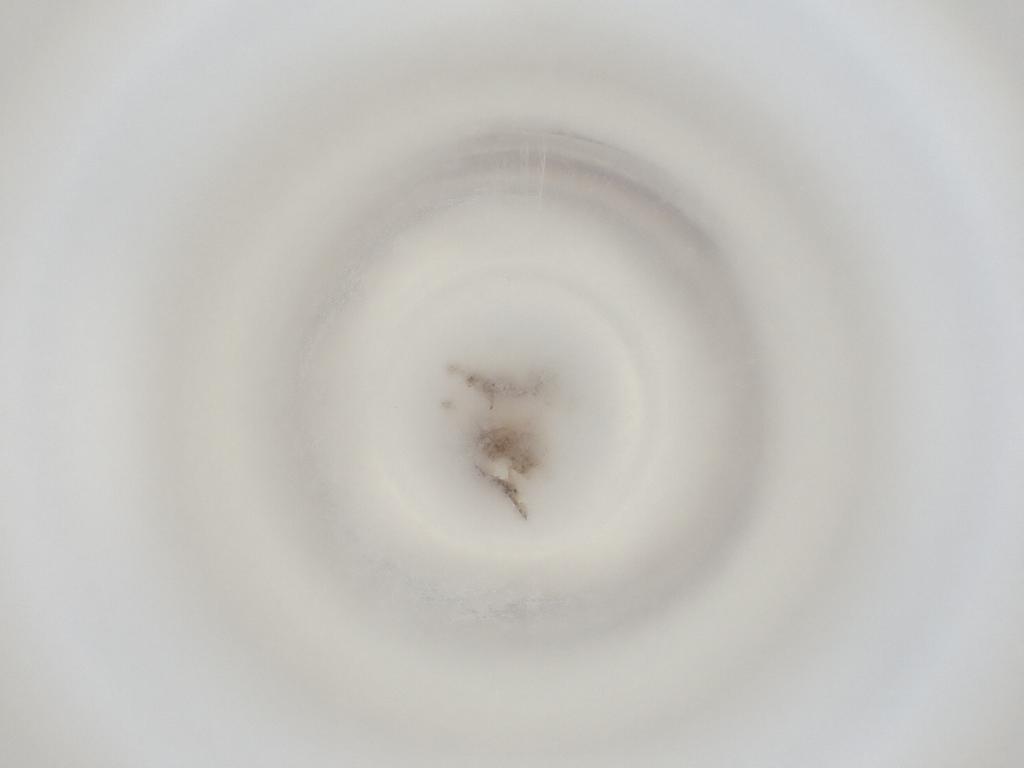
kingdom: Animalia
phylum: Arthropoda
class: Insecta
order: Diptera
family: Cecidomyiidae
